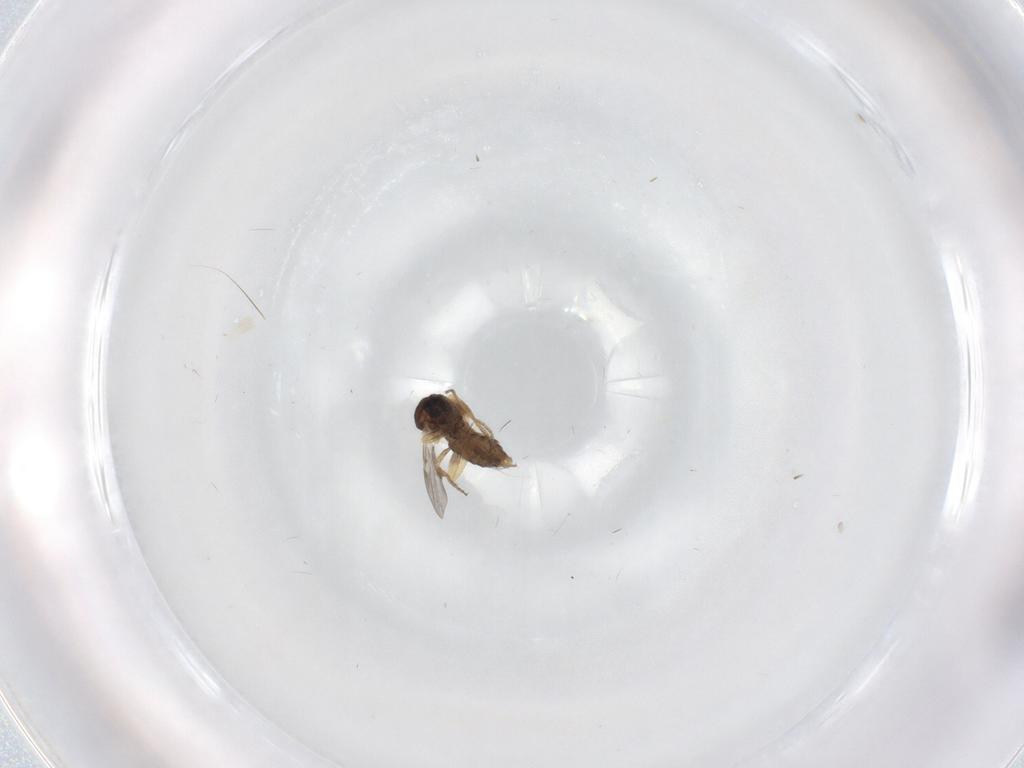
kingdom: Animalia
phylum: Arthropoda
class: Insecta
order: Diptera
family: Ceratopogonidae
